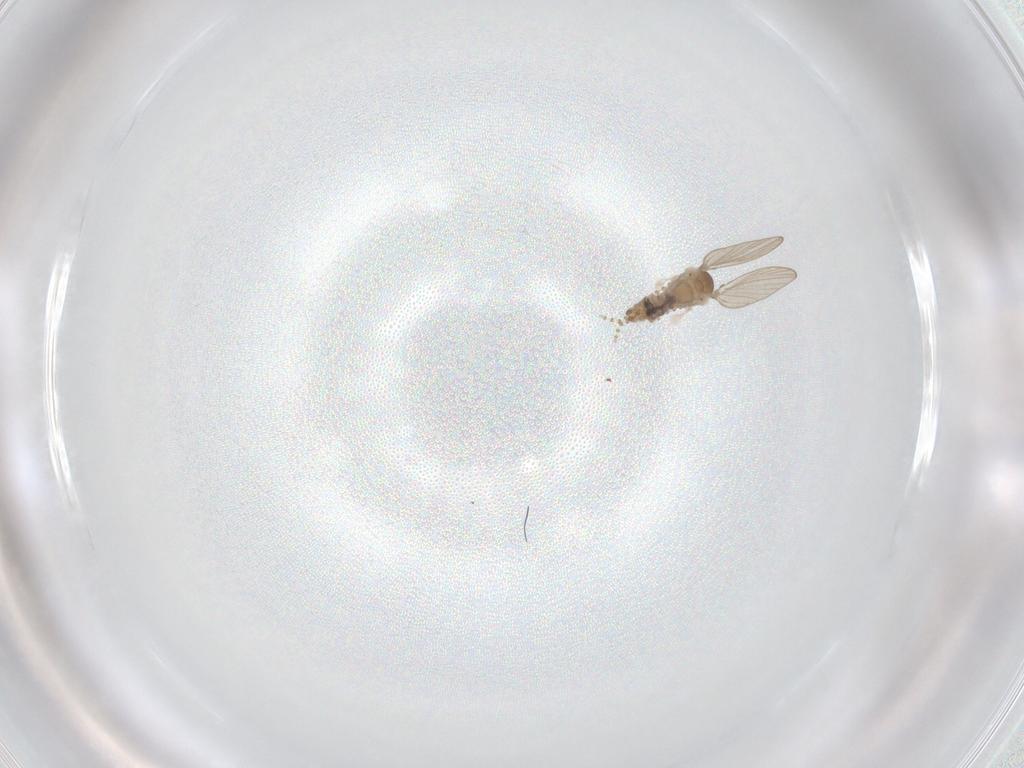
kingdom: Animalia
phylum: Arthropoda
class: Insecta
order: Diptera
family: Psychodidae
